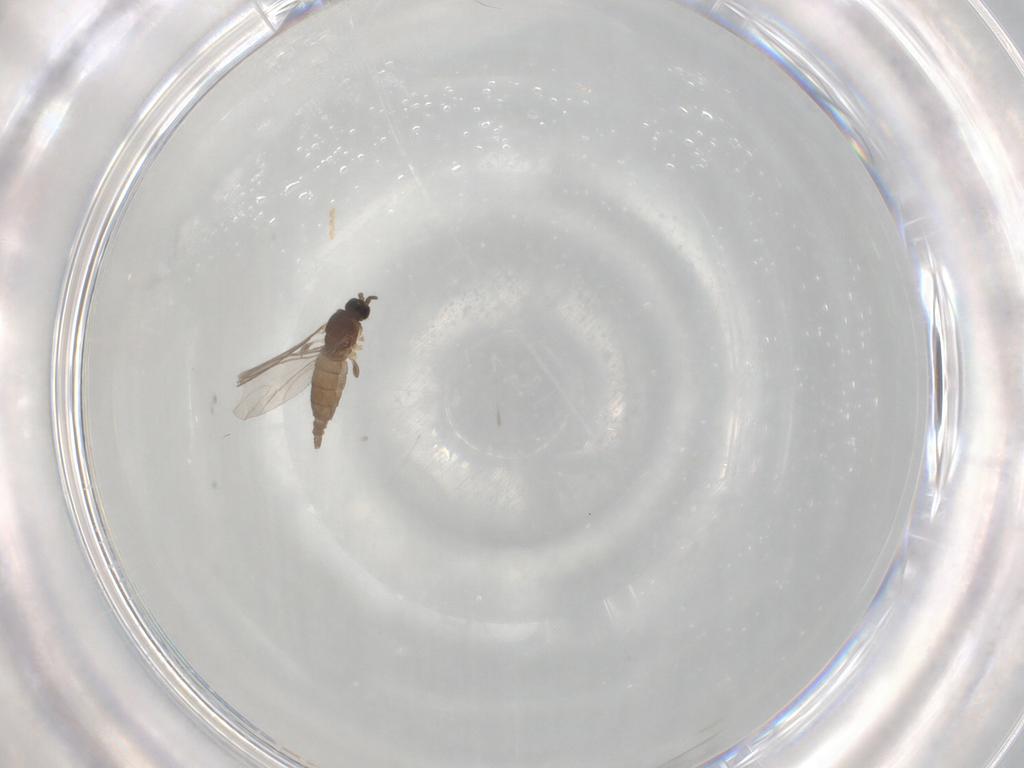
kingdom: Animalia
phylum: Arthropoda
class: Insecta
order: Diptera
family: Sciaridae
